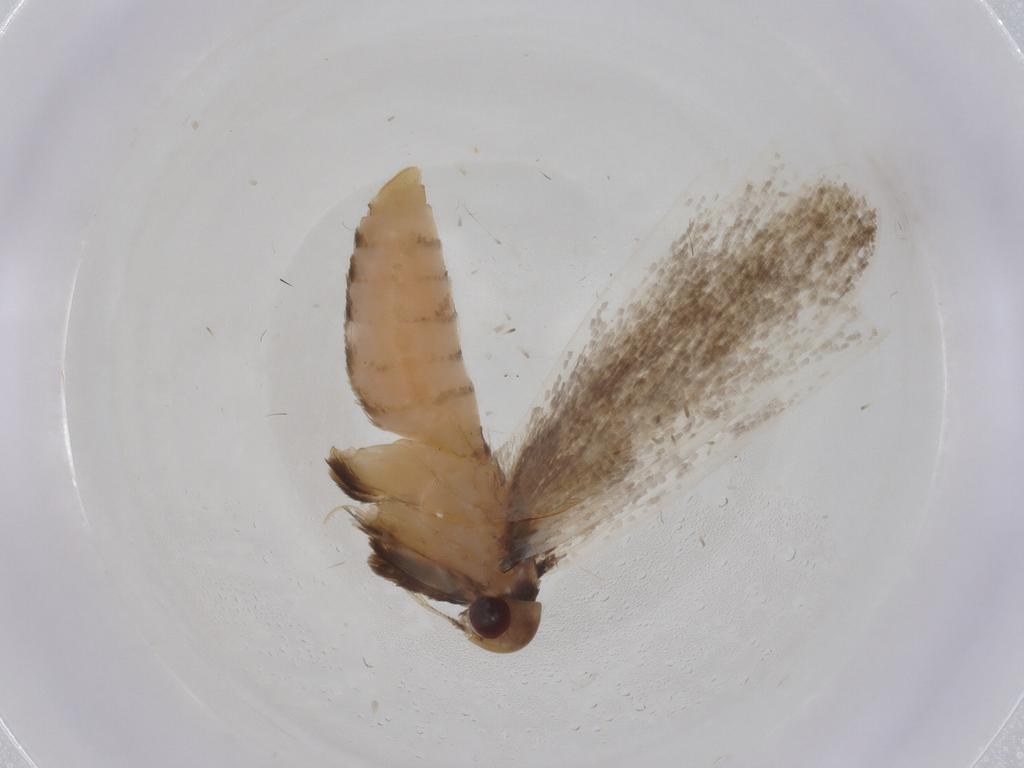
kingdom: Animalia
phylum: Arthropoda
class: Insecta
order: Lepidoptera
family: Crambidae
